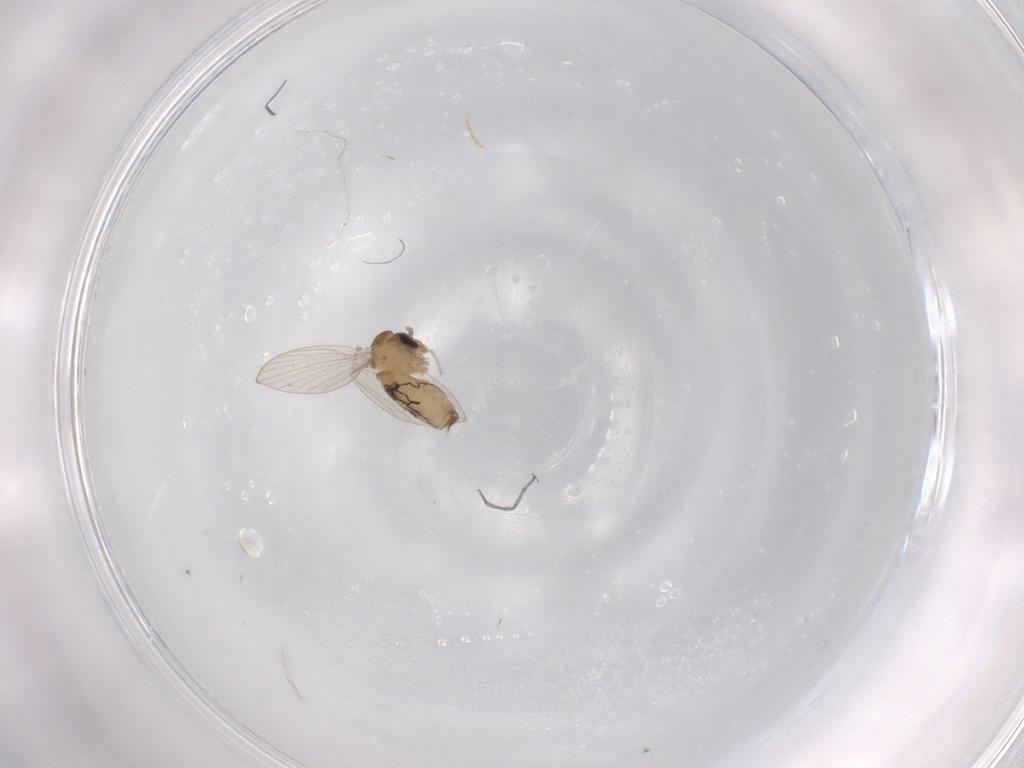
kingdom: Animalia
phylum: Arthropoda
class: Insecta
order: Diptera
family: Psychodidae
